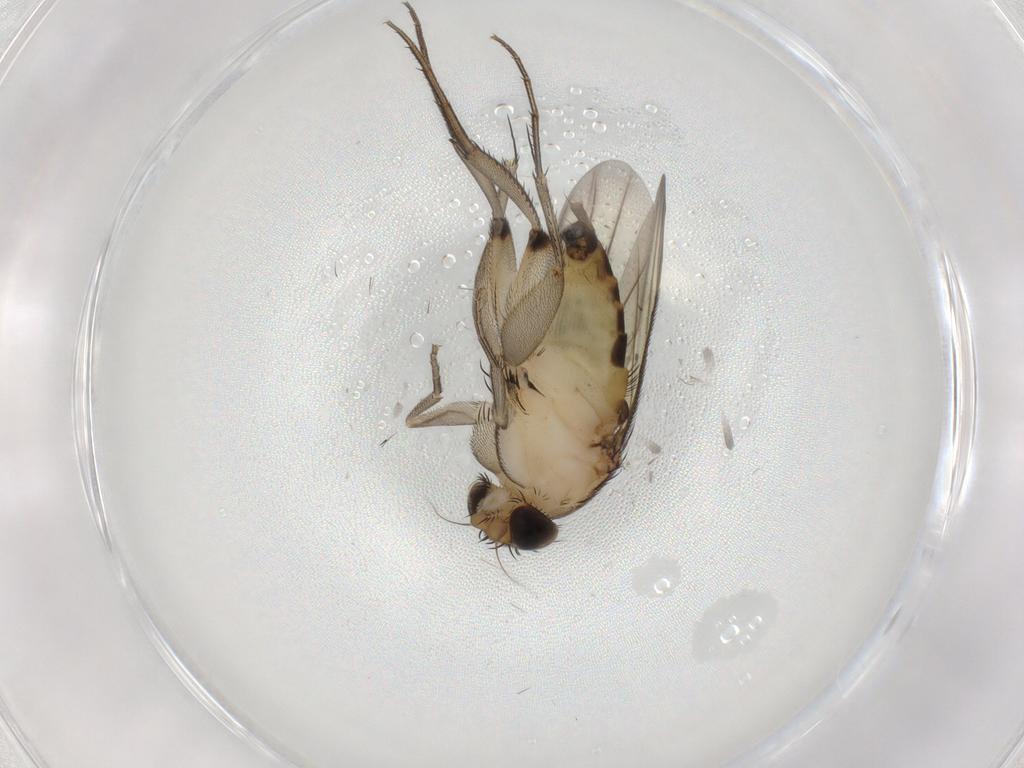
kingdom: Animalia
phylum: Arthropoda
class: Insecta
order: Diptera
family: Phoridae
